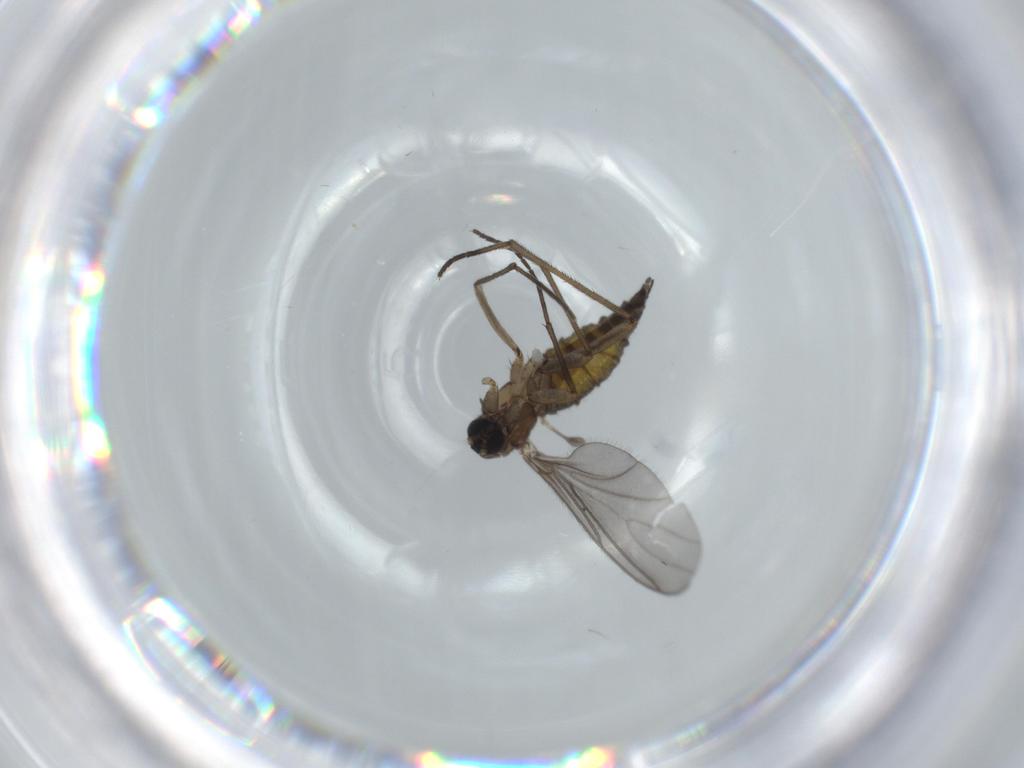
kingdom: Animalia
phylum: Arthropoda
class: Insecta
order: Diptera
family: Sciaridae
